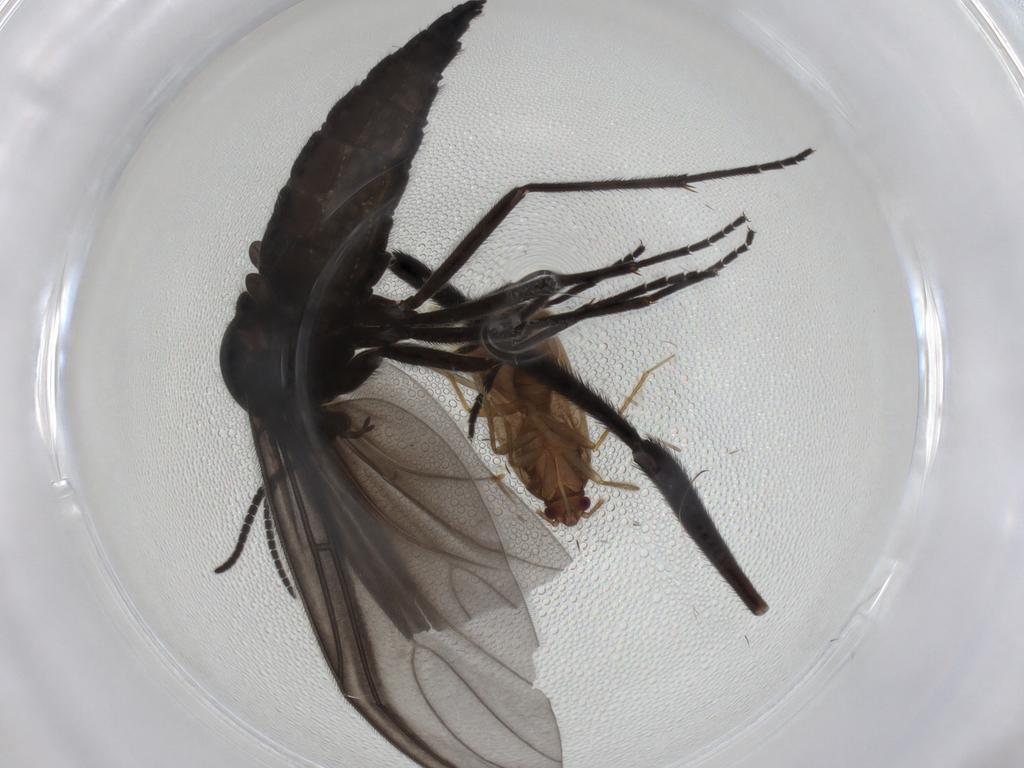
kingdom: Animalia
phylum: Arthropoda
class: Insecta
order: Diptera
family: Bibionidae
